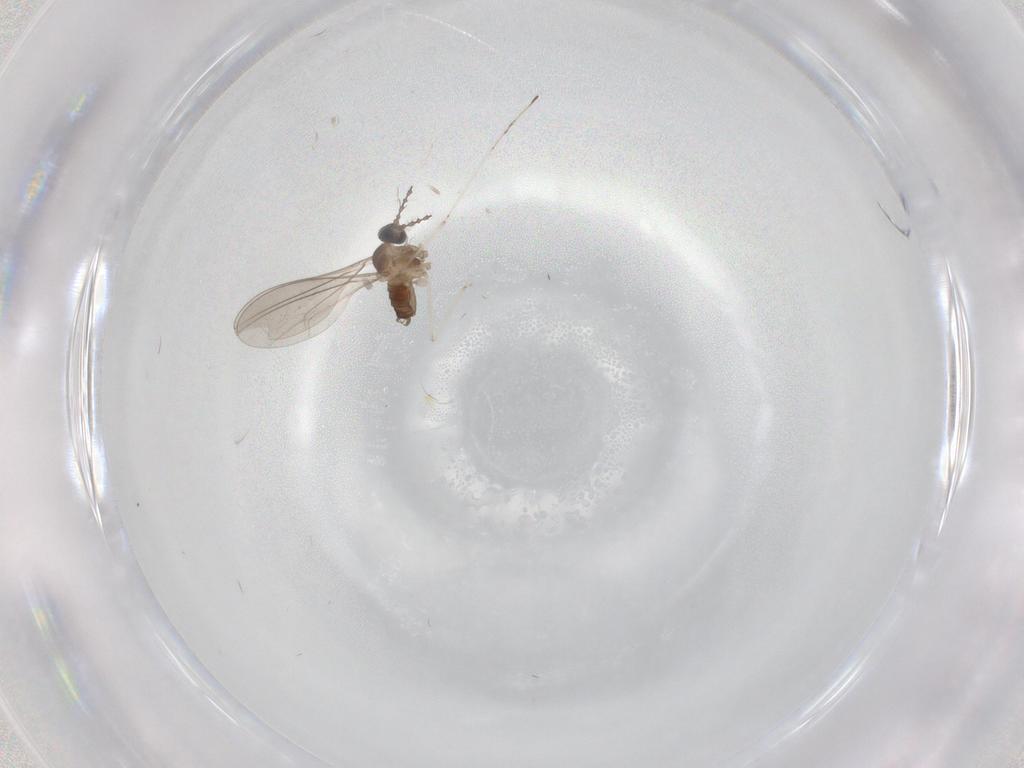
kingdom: Animalia
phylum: Arthropoda
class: Insecta
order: Diptera
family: Cecidomyiidae
